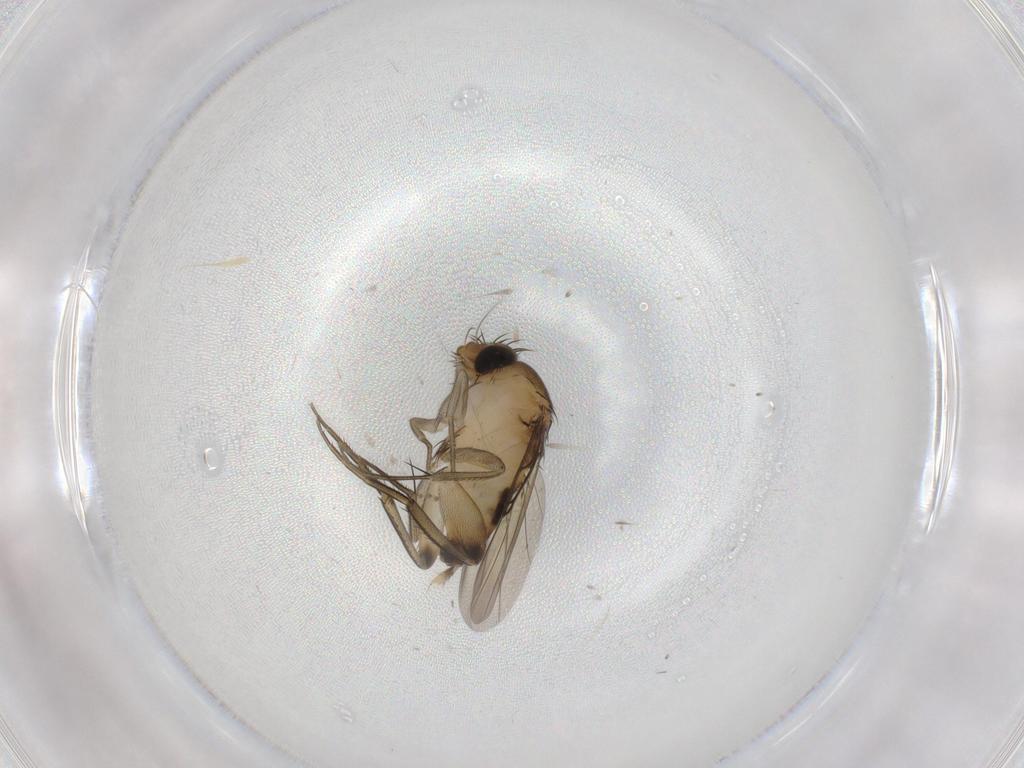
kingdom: Animalia
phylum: Arthropoda
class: Insecta
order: Diptera
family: Phoridae
